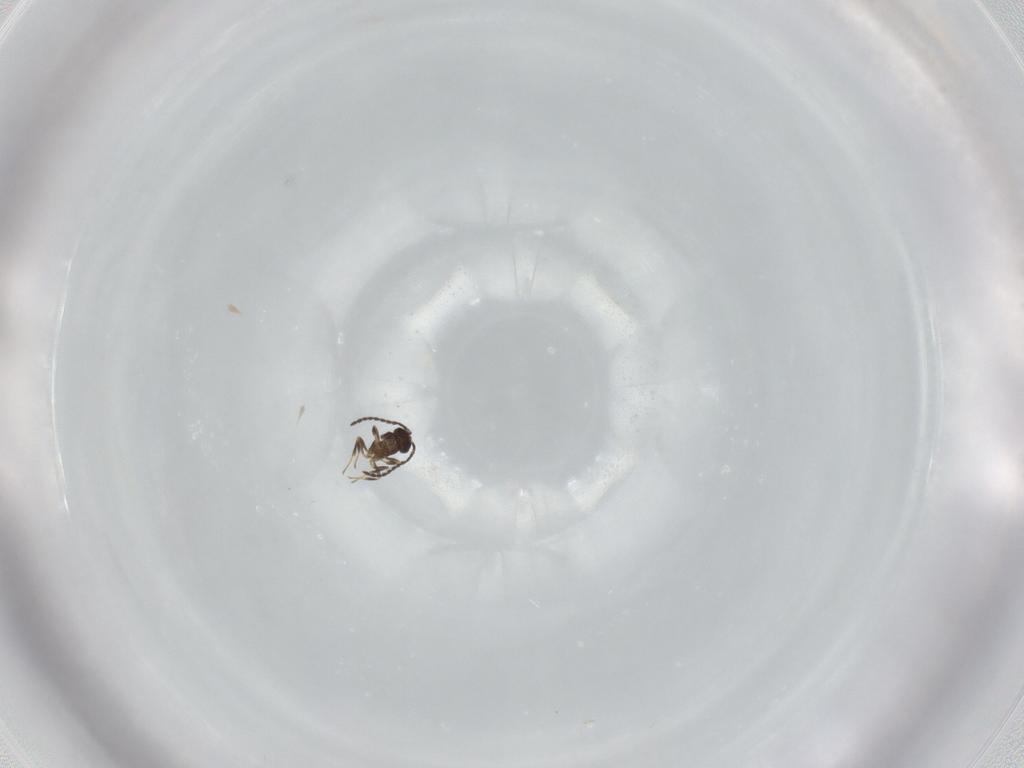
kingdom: Animalia
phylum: Arthropoda
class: Insecta
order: Hymenoptera
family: Scelionidae
